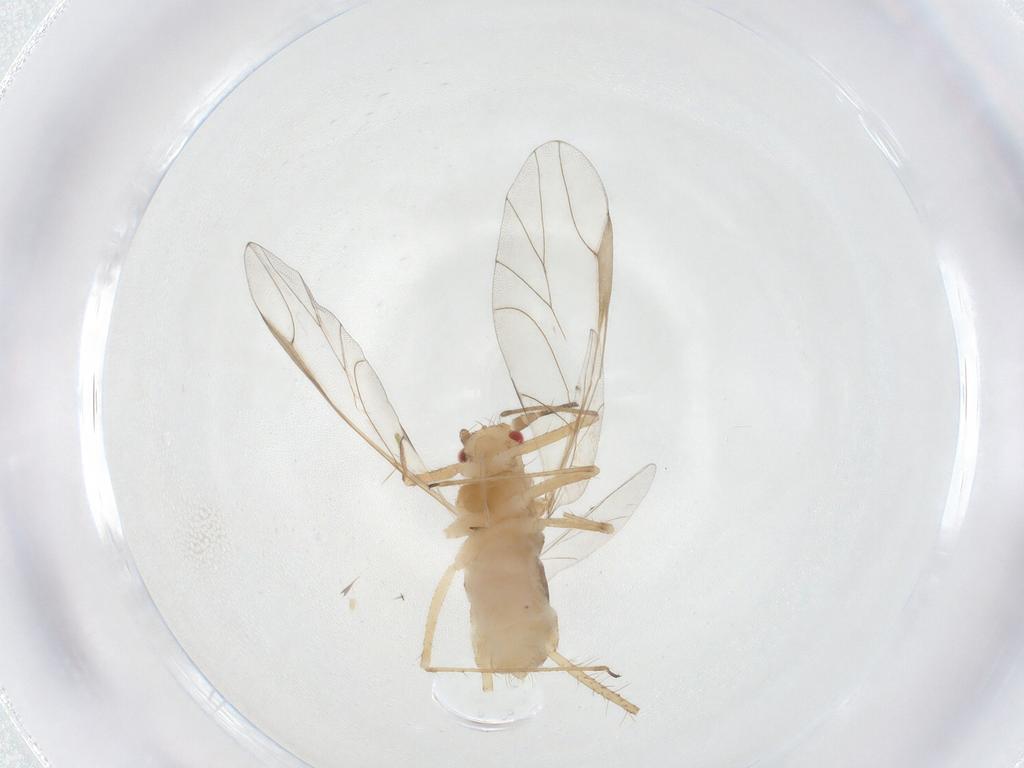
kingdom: Animalia
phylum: Arthropoda
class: Insecta
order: Hemiptera
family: Aphididae
